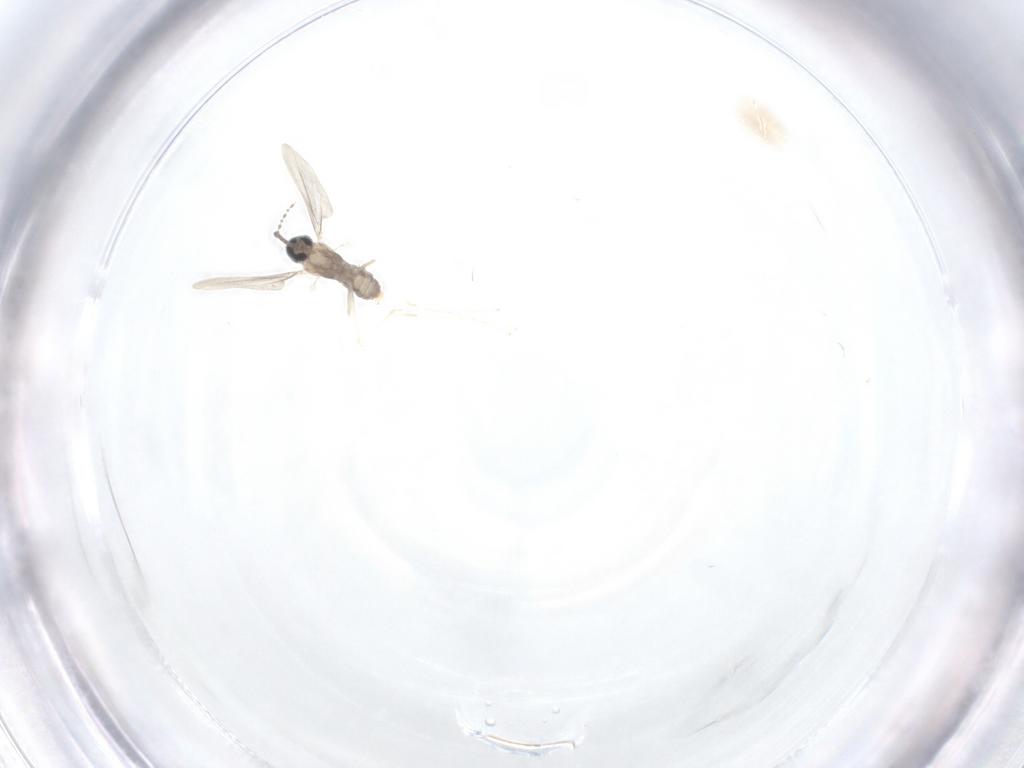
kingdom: Animalia
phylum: Arthropoda
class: Insecta
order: Diptera
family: Cecidomyiidae
